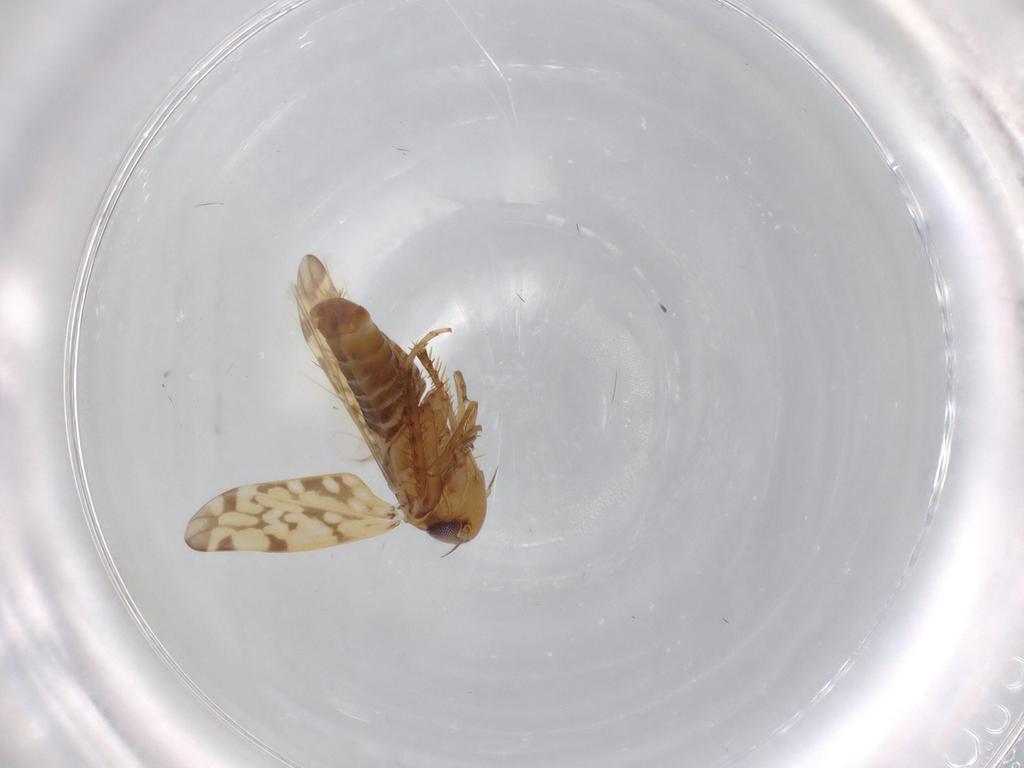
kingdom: Animalia
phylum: Arthropoda
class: Insecta
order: Hemiptera
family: Cicadellidae
